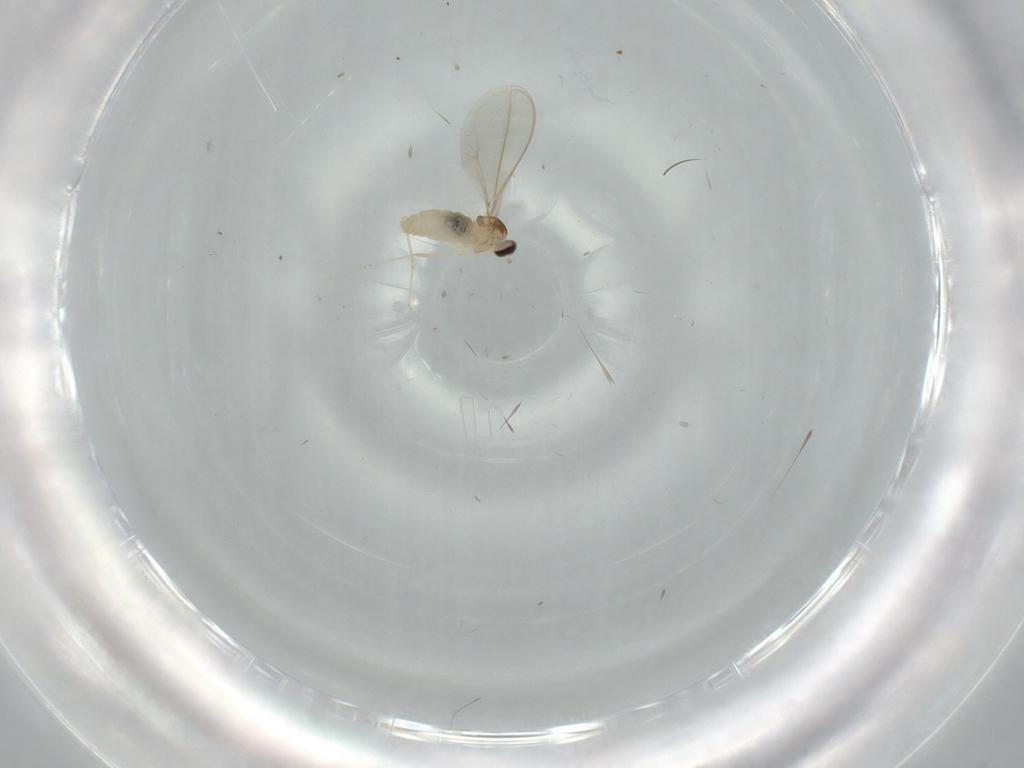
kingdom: Animalia
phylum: Arthropoda
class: Insecta
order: Diptera
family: Cecidomyiidae
